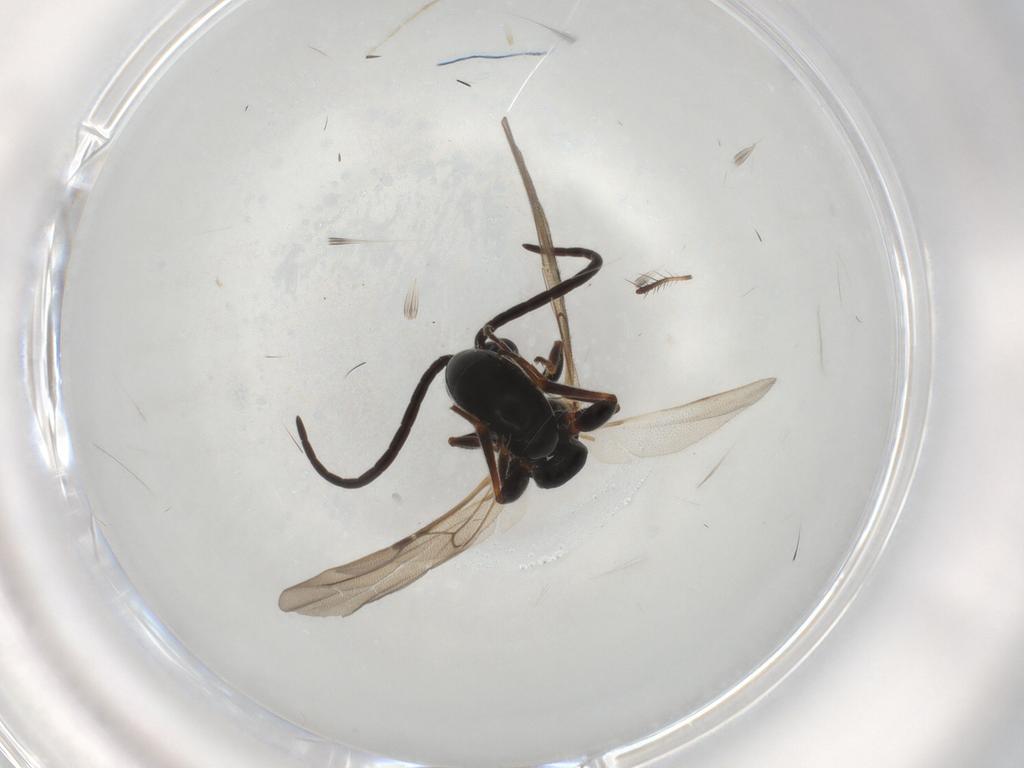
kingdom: Animalia
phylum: Arthropoda
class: Insecta
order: Hymenoptera
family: Bethylidae
